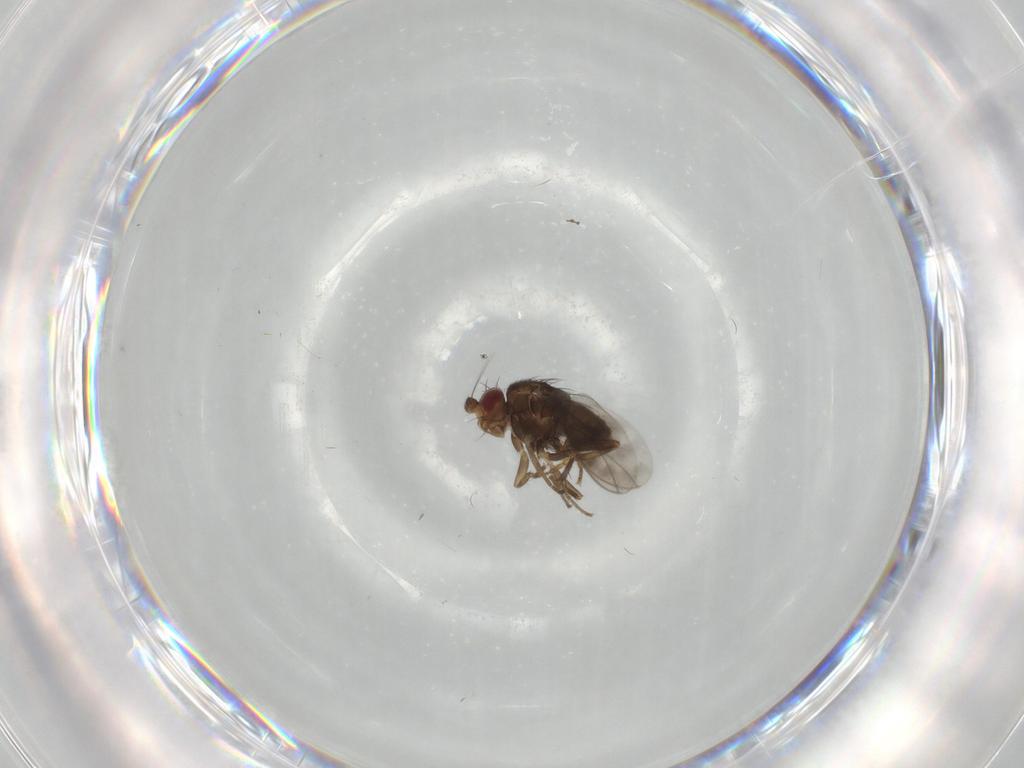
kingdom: Animalia
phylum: Arthropoda
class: Insecta
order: Diptera
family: Sphaeroceridae
